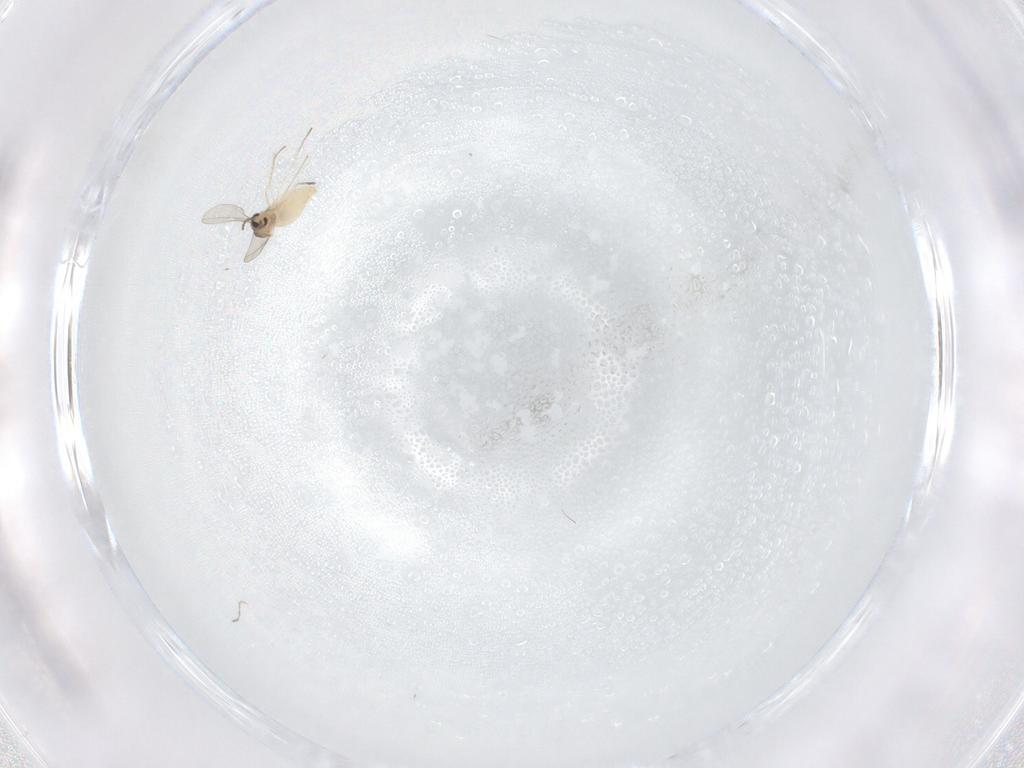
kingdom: Animalia
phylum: Arthropoda
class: Insecta
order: Diptera
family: Cecidomyiidae
